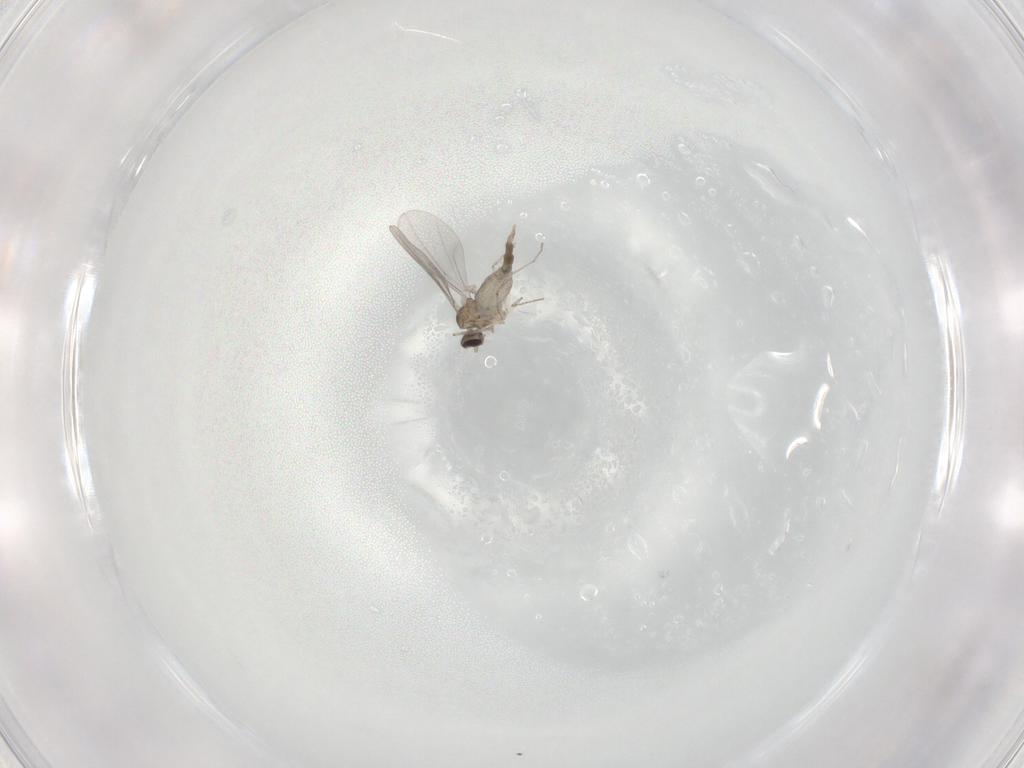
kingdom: Animalia
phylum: Arthropoda
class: Insecta
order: Diptera
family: Cecidomyiidae
